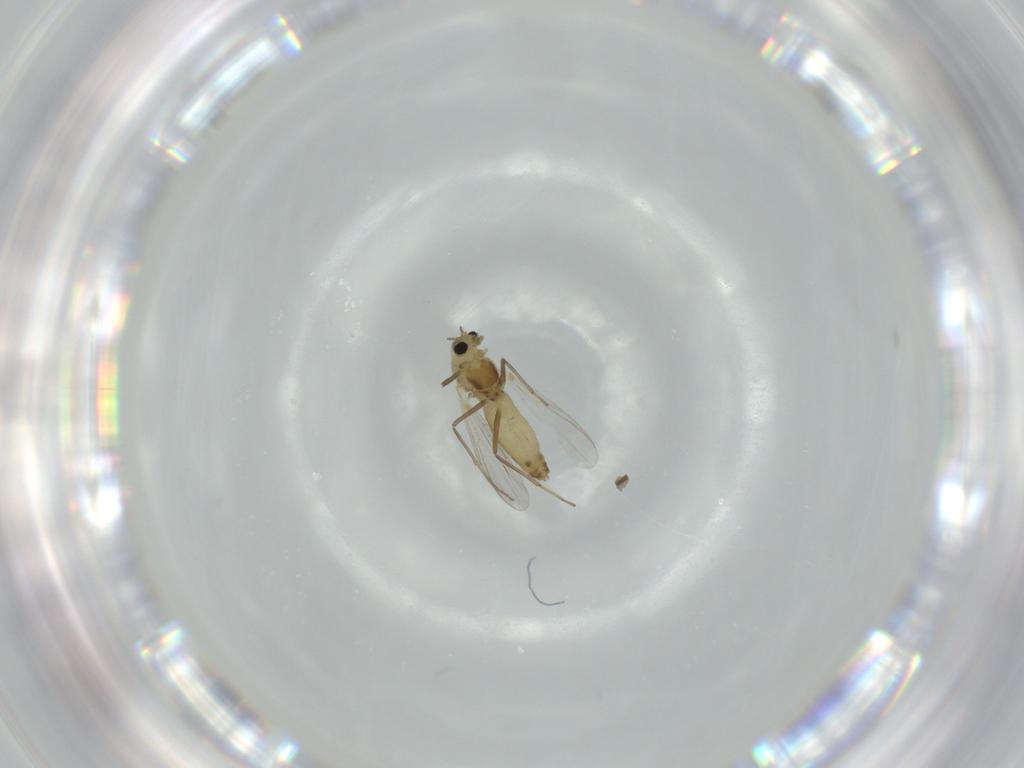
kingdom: Animalia
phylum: Arthropoda
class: Insecta
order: Diptera
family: Chironomidae
